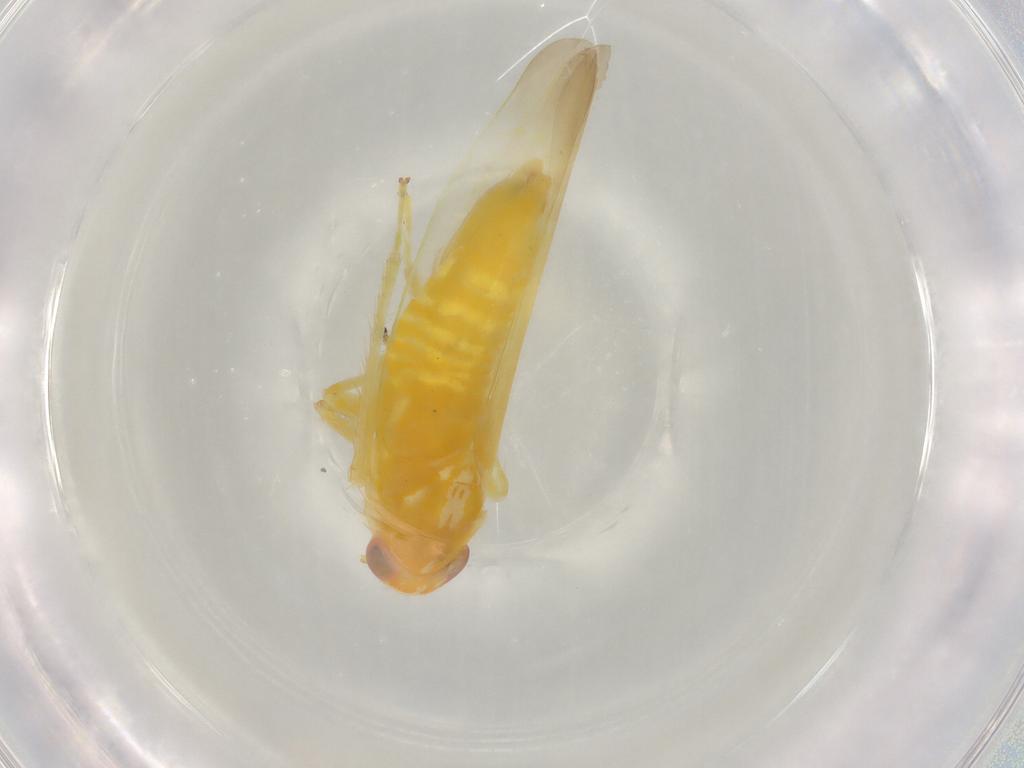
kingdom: Animalia
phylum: Arthropoda
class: Insecta
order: Hemiptera
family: Cicadellidae
